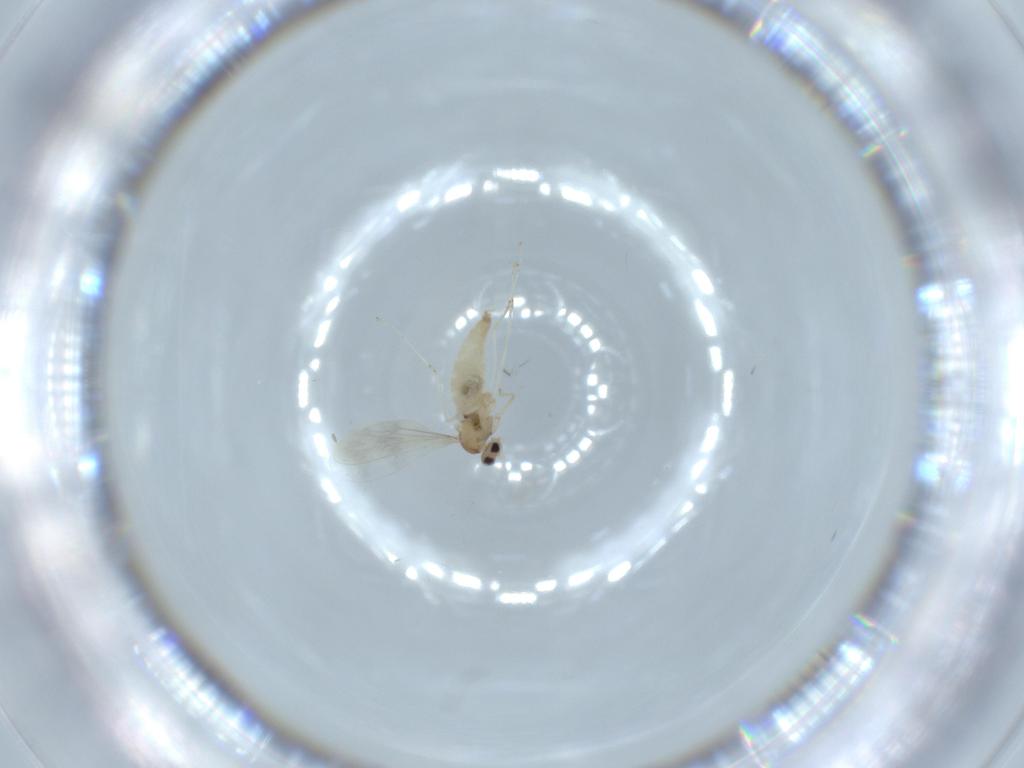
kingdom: Animalia
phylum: Arthropoda
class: Insecta
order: Diptera
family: Cecidomyiidae
